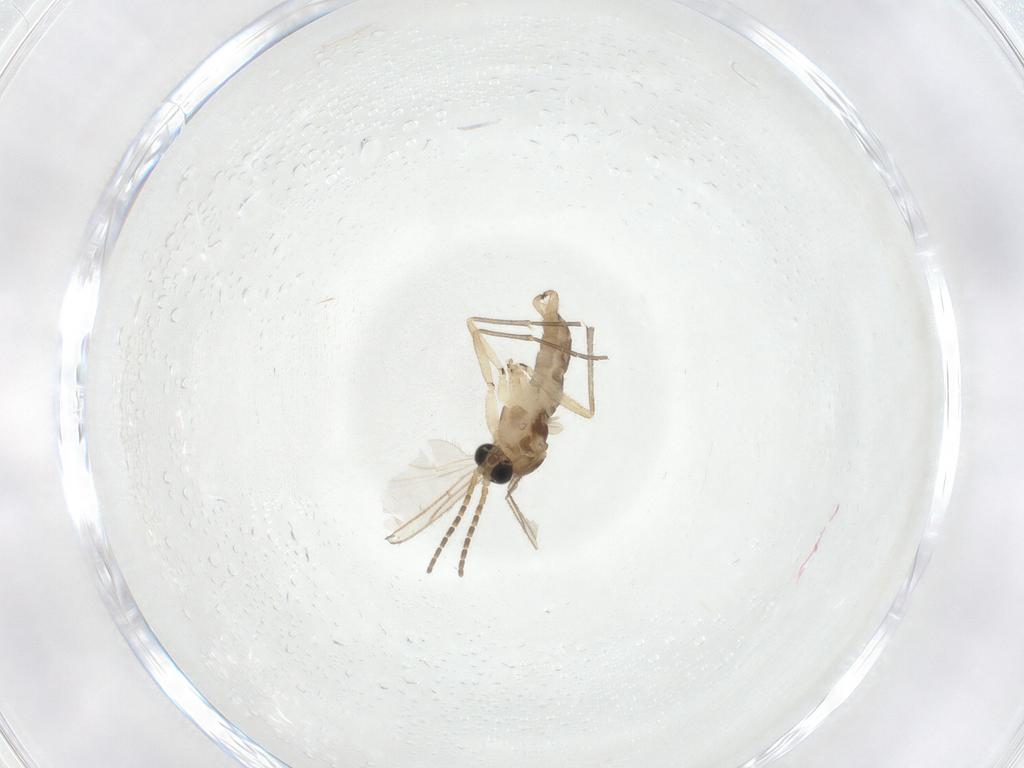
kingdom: Animalia
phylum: Arthropoda
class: Insecta
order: Diptera
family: Sciaridae
